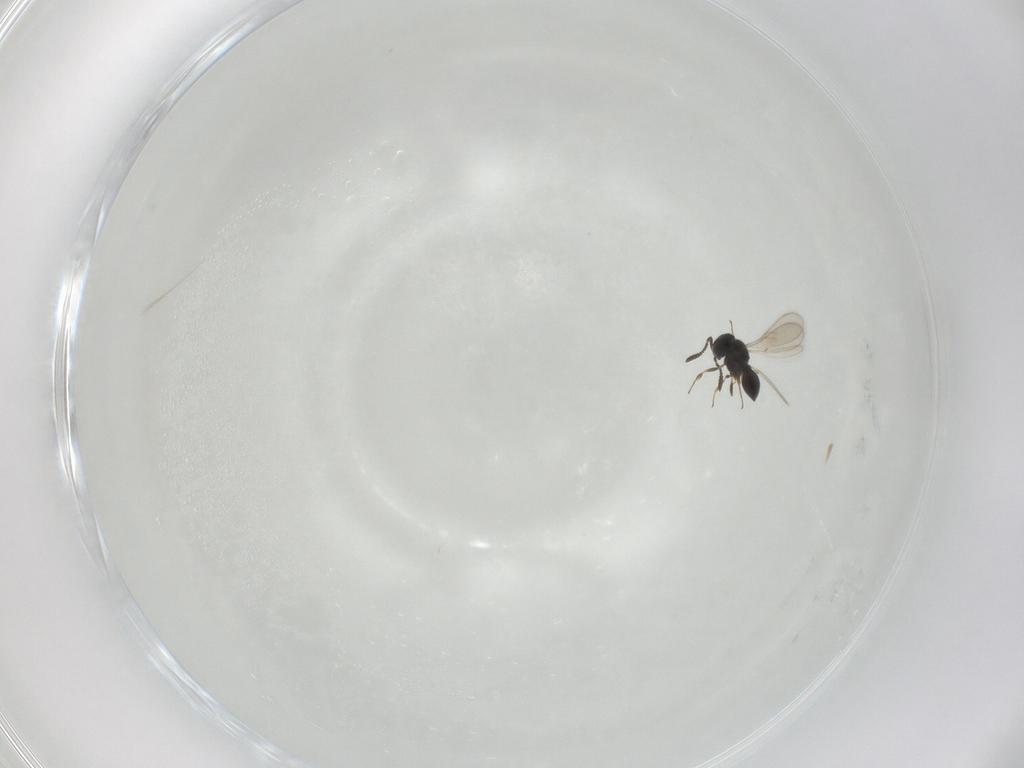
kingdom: Animalia
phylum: Arthropoda
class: Insecta
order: Hymenoptera
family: Scelionidae
